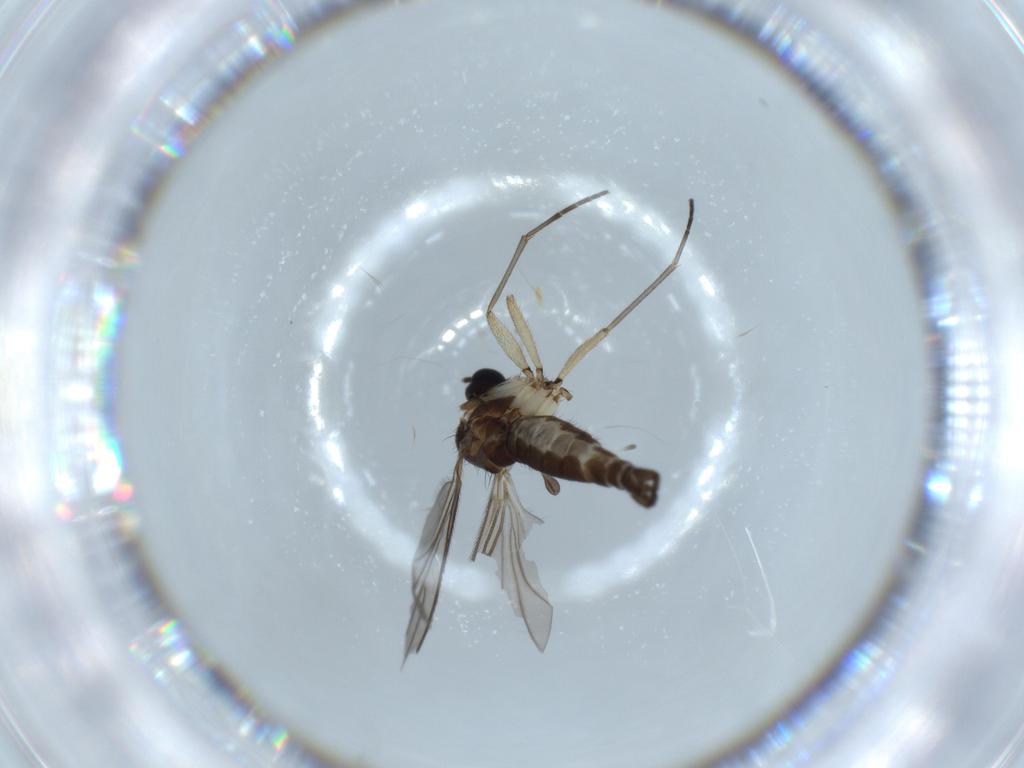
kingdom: Animalia
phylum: Arthropoda
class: Insecta
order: Diptera
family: Sciaridae
